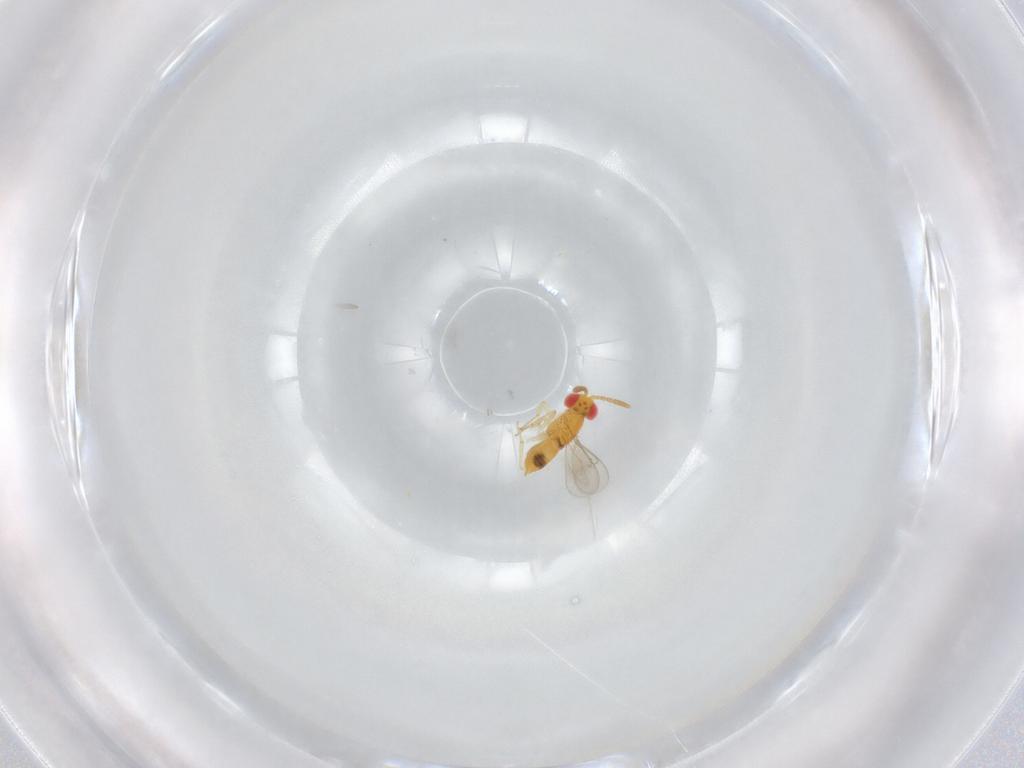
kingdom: Animalia
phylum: Arthropoda
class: Insecta
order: Hymenoptera
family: Aphelinidae
